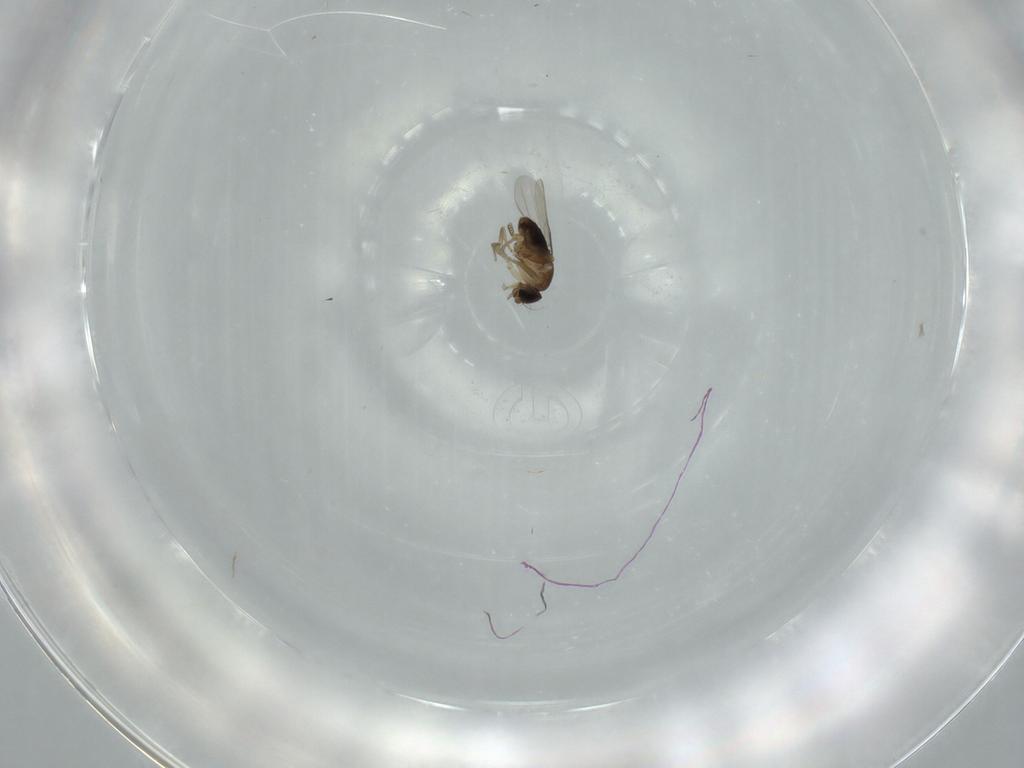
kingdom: Animalia
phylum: Arthropoda
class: Insecta
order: Diptera
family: Phoridae
